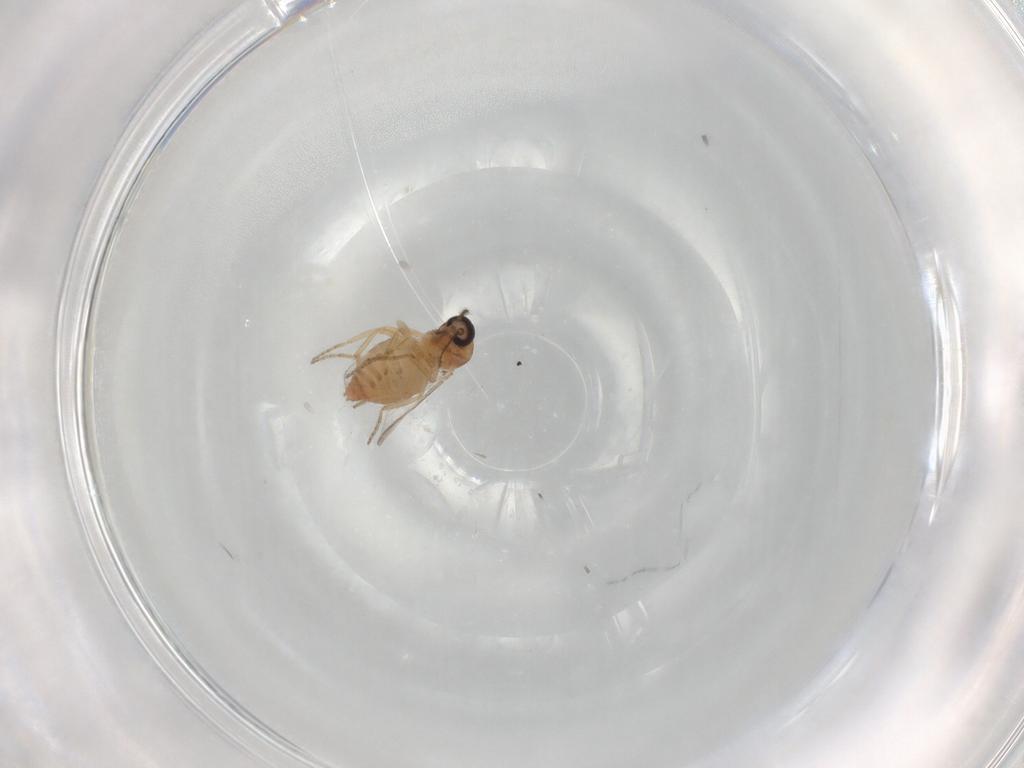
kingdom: Animalia
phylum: Arthropoda
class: Insecta
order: Diptera
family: Ceratopogonidae
